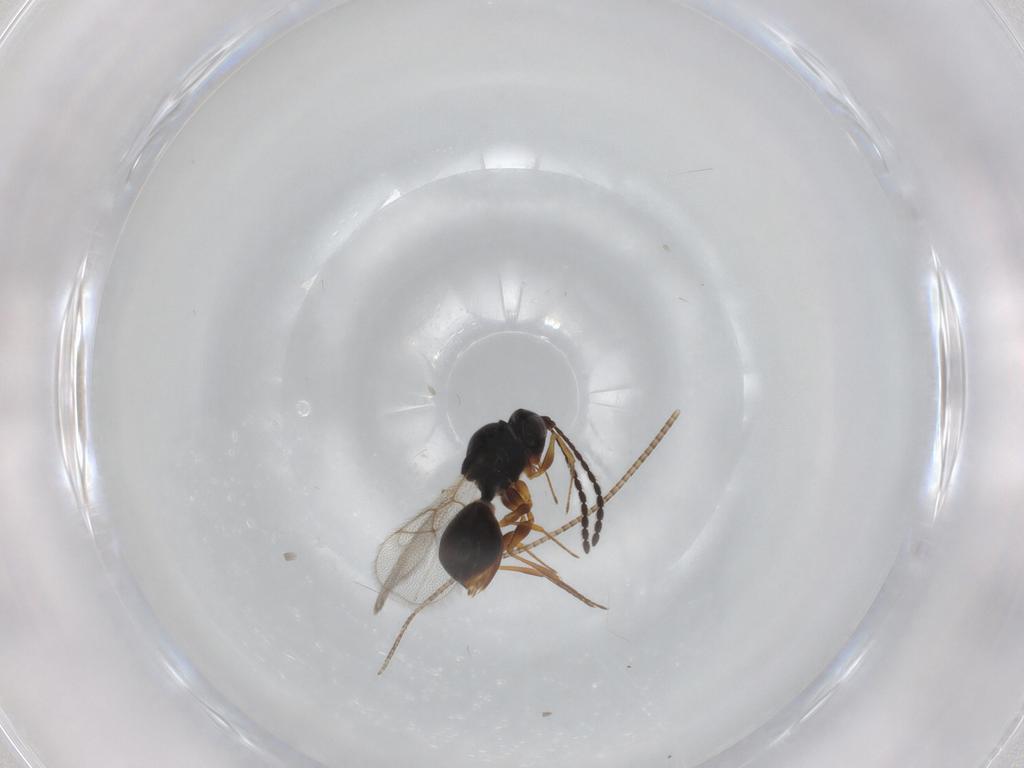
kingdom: Animalia
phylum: Arthropoda
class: Insecta
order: Hymenoptera
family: Figitidae
